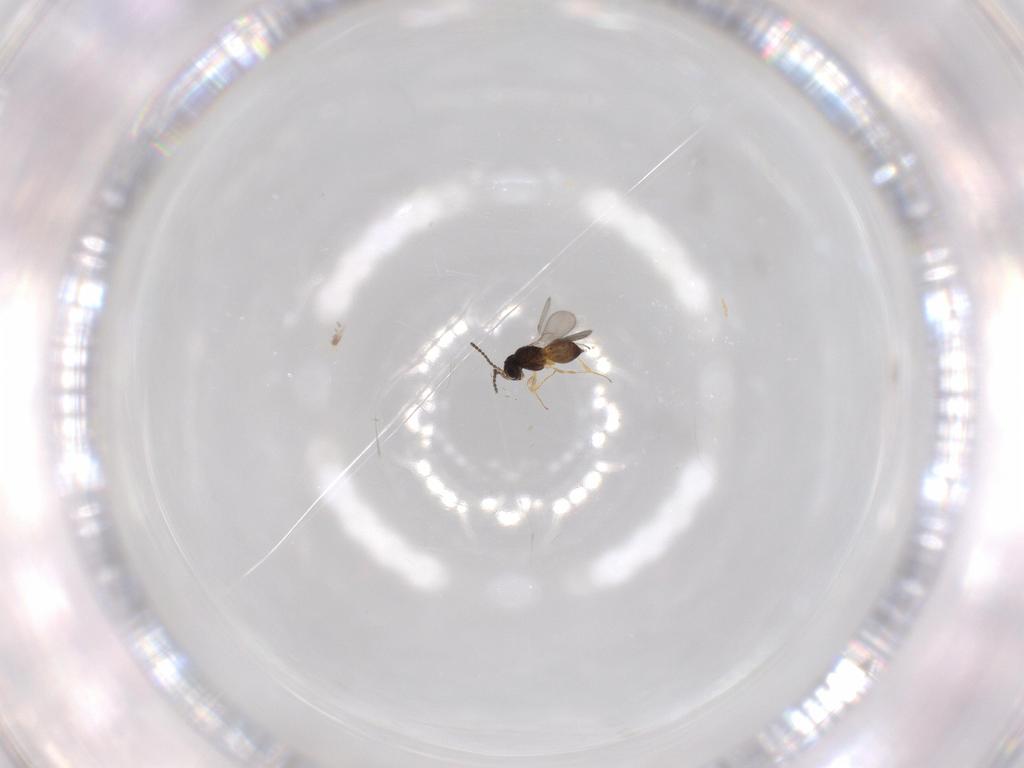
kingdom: Animalia
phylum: Arthropoda
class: Insecta
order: Hymenoptera
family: Scelionidae
